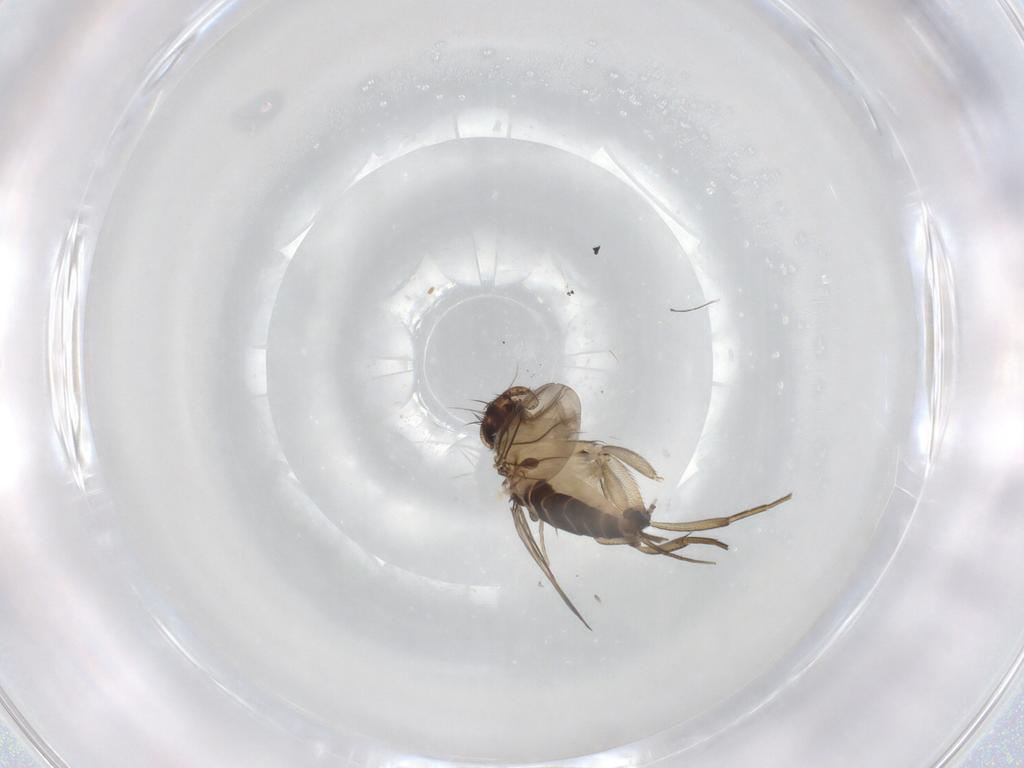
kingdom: Animalia
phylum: Arthropoda
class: Insecta
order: Diptera
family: Phoridae
